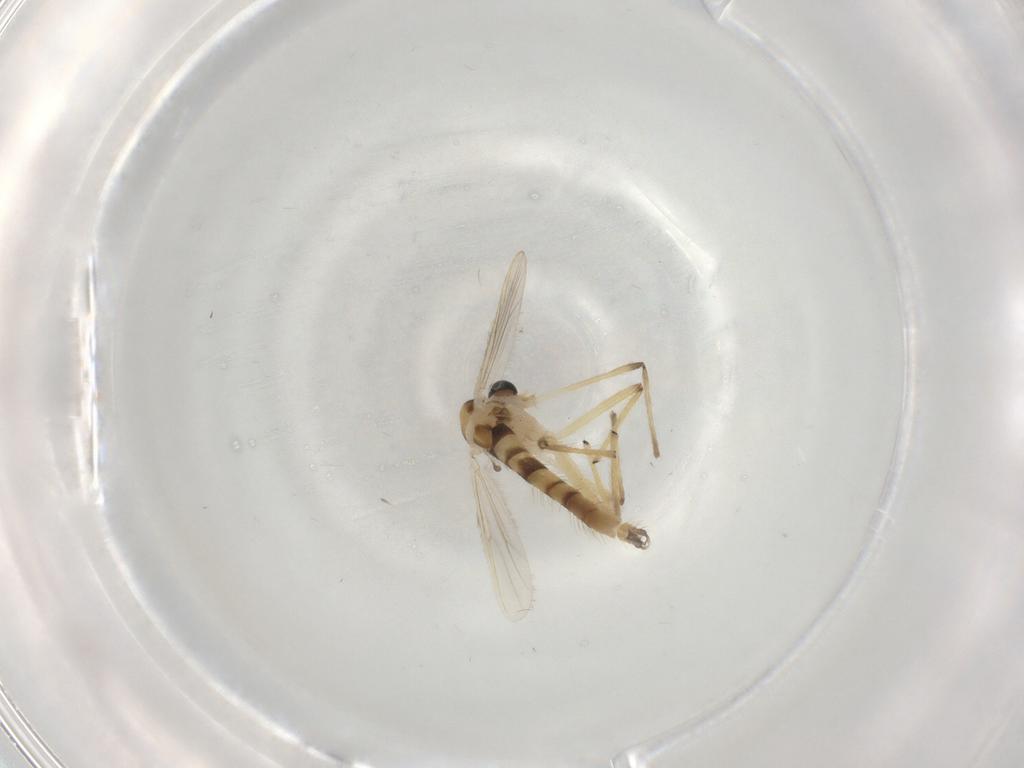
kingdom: Animalia
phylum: Arthropoda
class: Insecta
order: Diptera
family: Chironomidae
